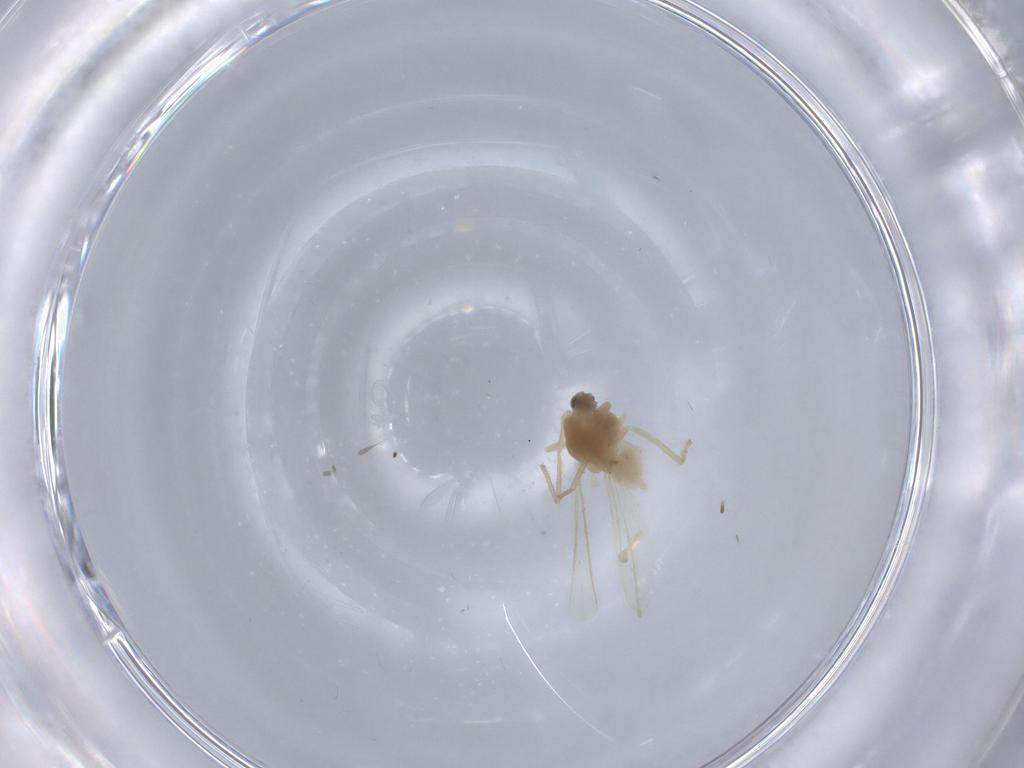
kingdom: Animalia
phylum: Arthropoda
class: Insecta
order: Diptera
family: Chironomidae
